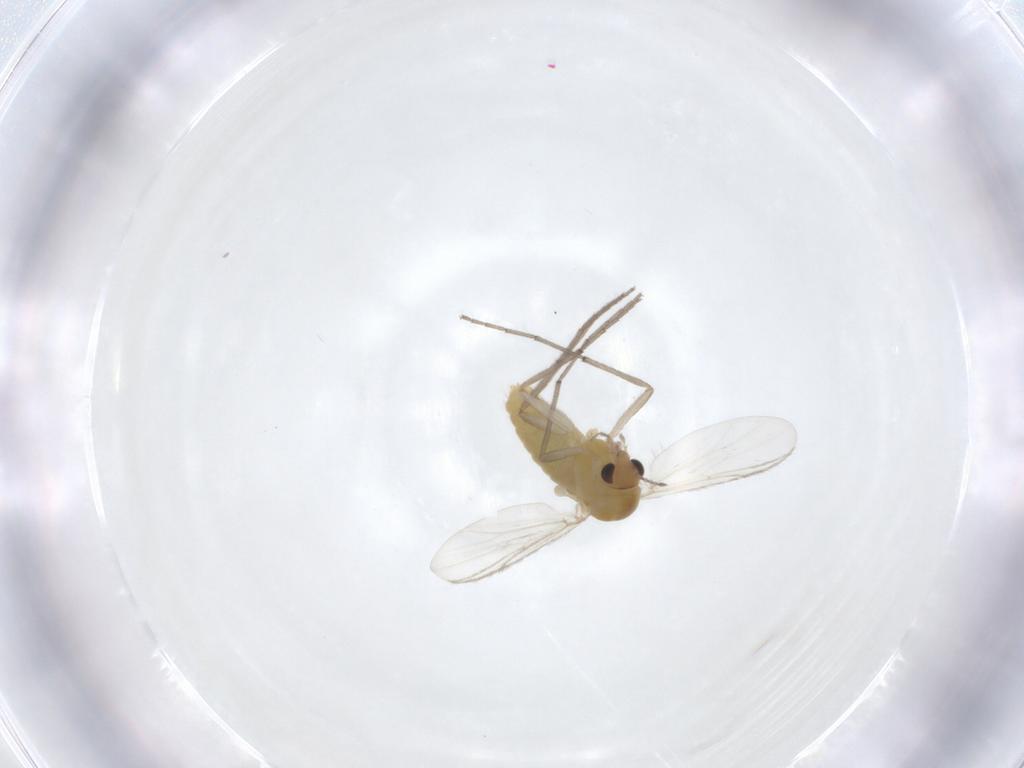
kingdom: Animalia
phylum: Arthropoda
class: Insecta
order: Diptera
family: Chironomidae
